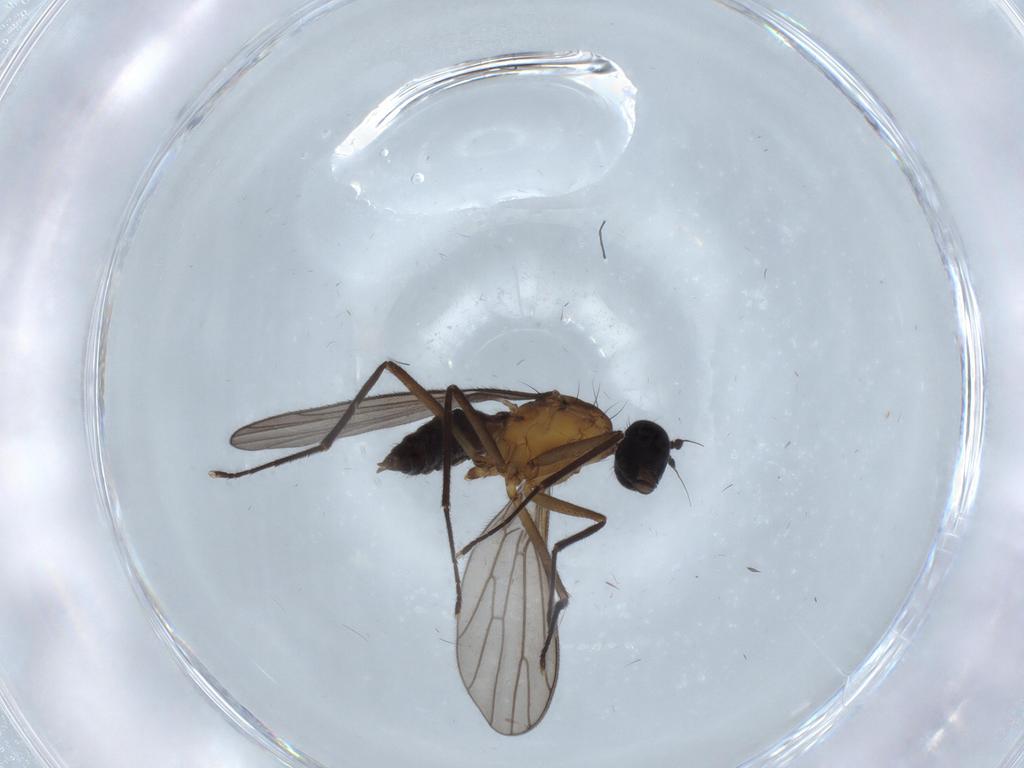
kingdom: Animalia
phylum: Arthropoda
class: Insecta
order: Diptera
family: Empididae
